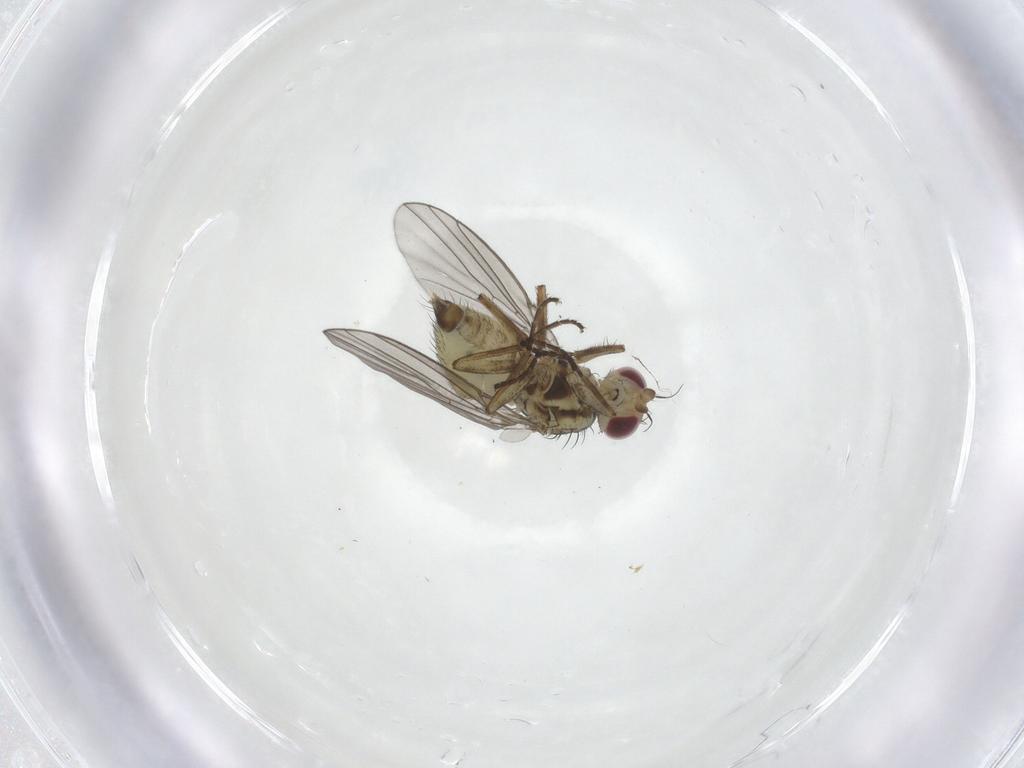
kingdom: Animalia
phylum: Arthropoda
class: Insecta
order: Diptera
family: Agromyzidae
